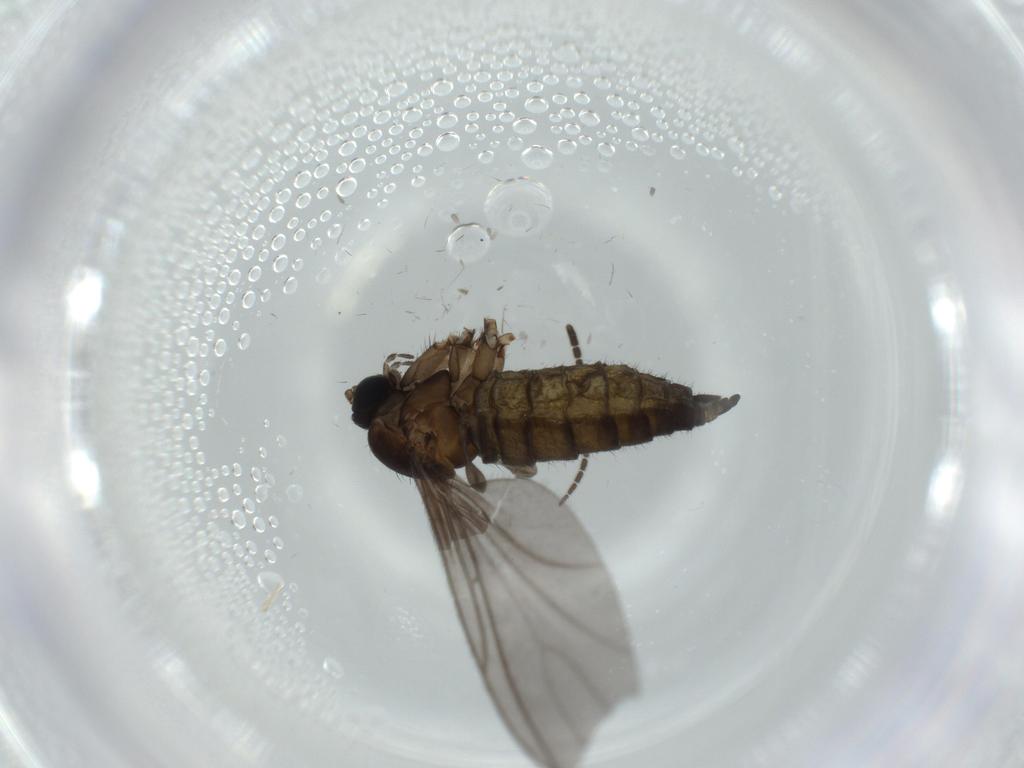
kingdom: Animalia
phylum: Arthropoda
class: Insecta
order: Diptera
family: Sciaridae
